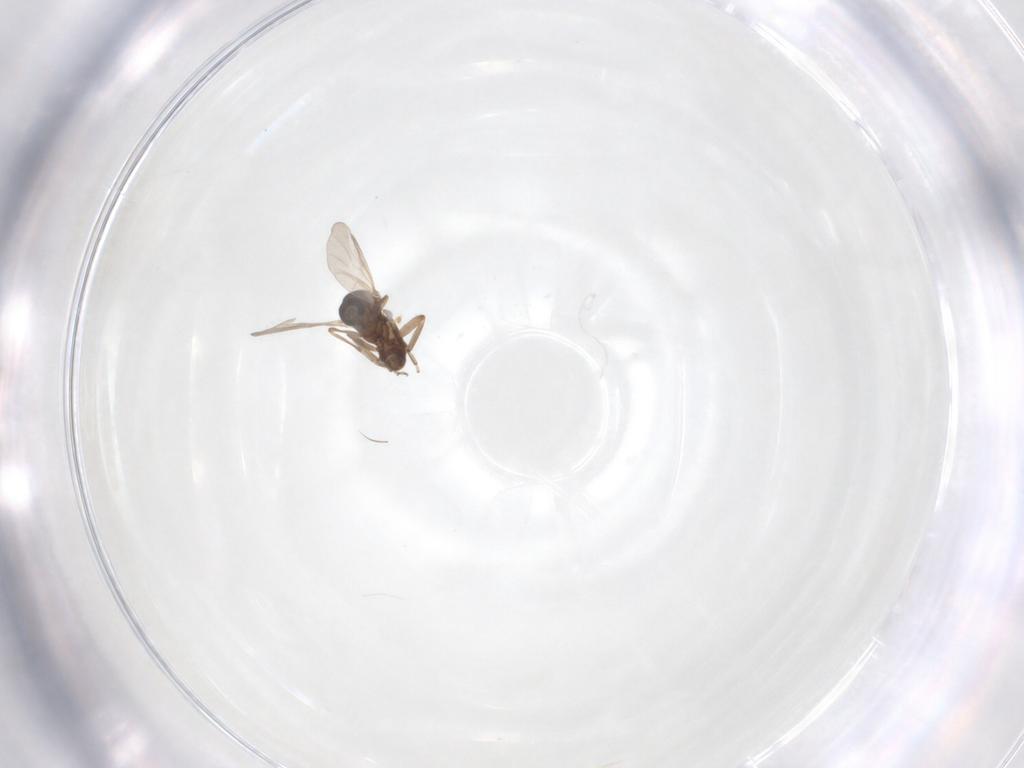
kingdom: Animalia
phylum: Arthropoda
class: Insecta
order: Diptera
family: Ceratopogonidae
